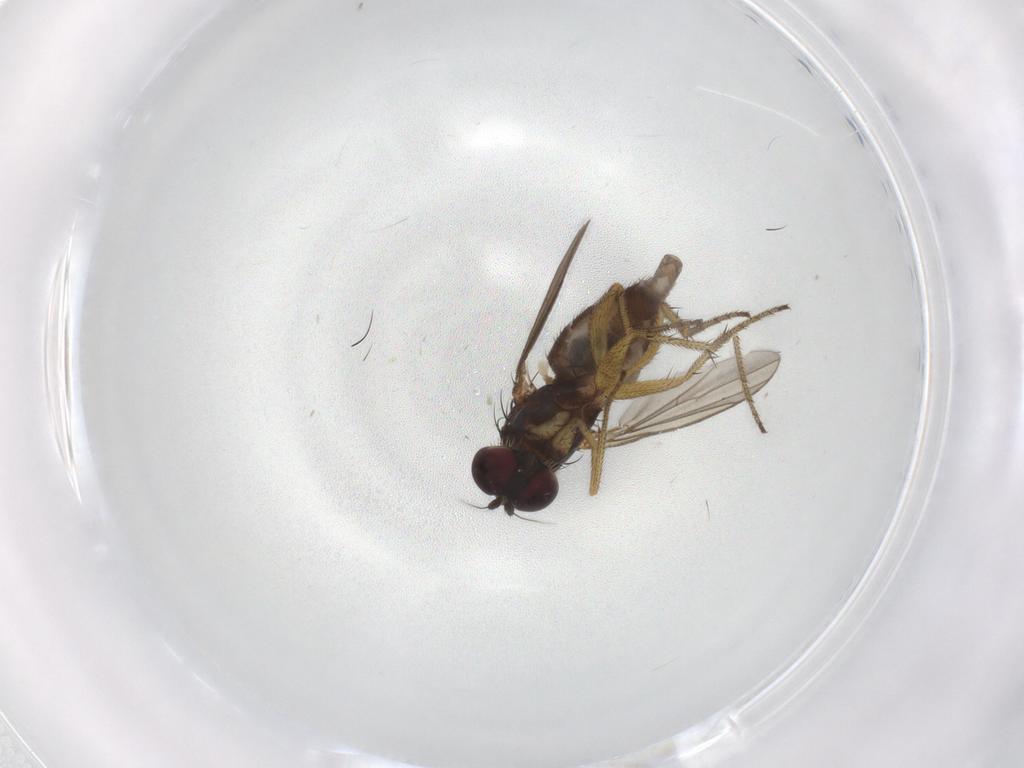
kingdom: Animalia
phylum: Arthropoda
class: Insecta
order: Diptera
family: Dolichopodidae
